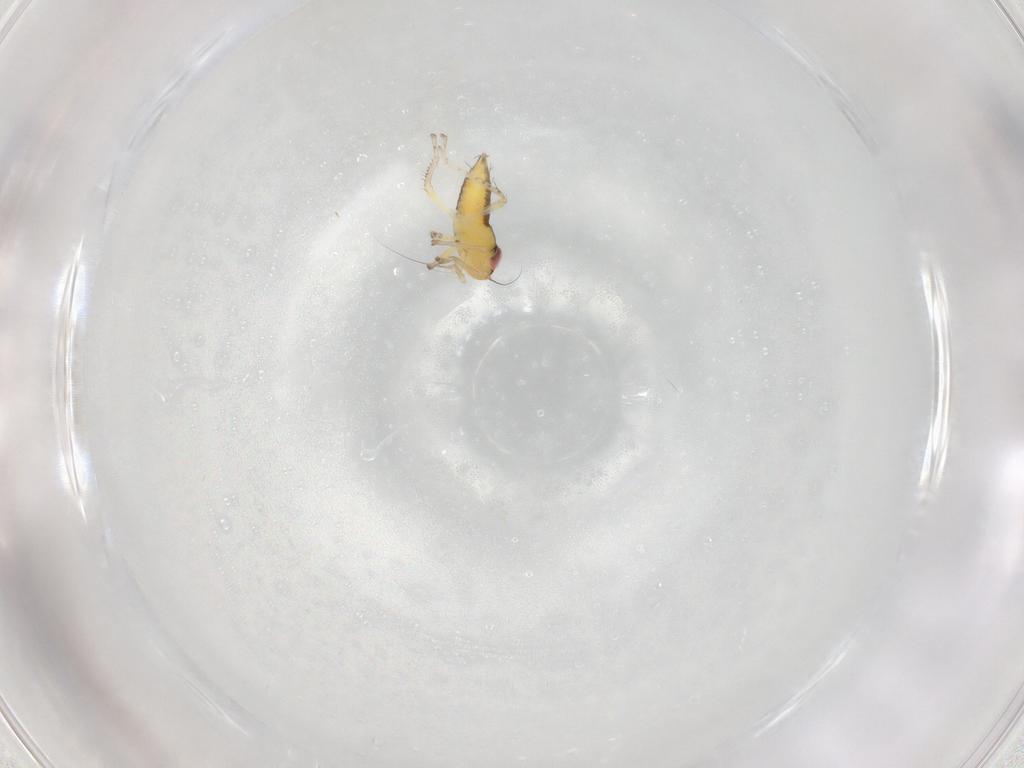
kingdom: Animalia
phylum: Arthropoda
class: Insecta
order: Hemiptera
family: Cicadellidae
